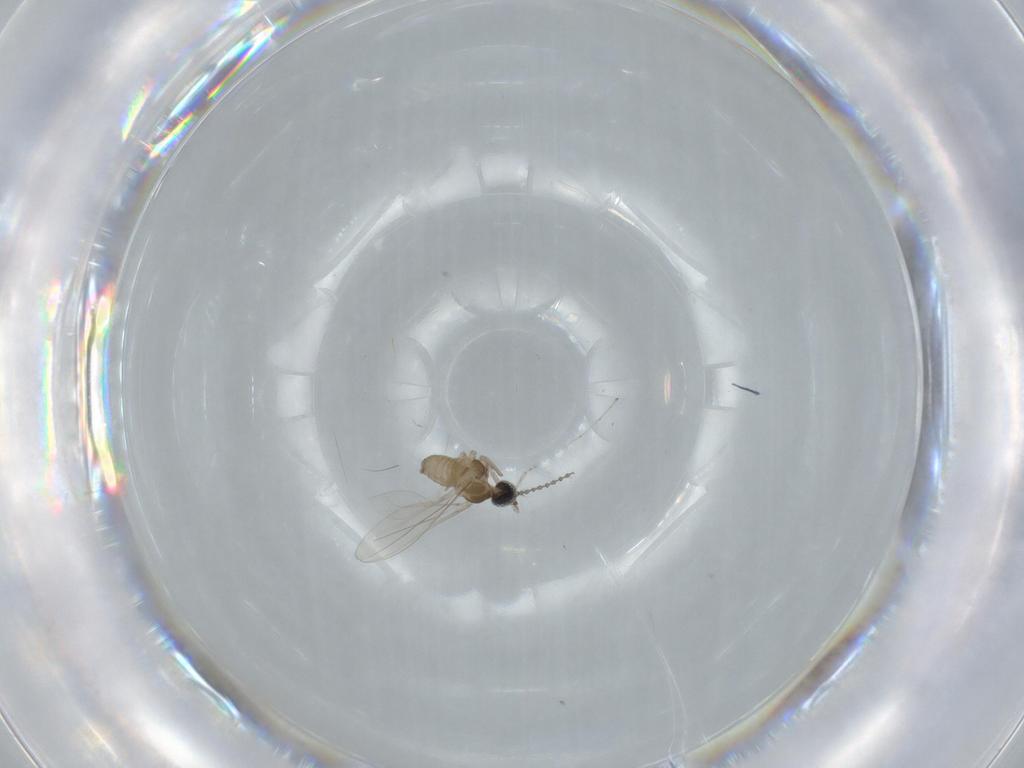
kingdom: Animalia
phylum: Arthropoda
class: Insecta
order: Diptera
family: Cecidomyiidae
